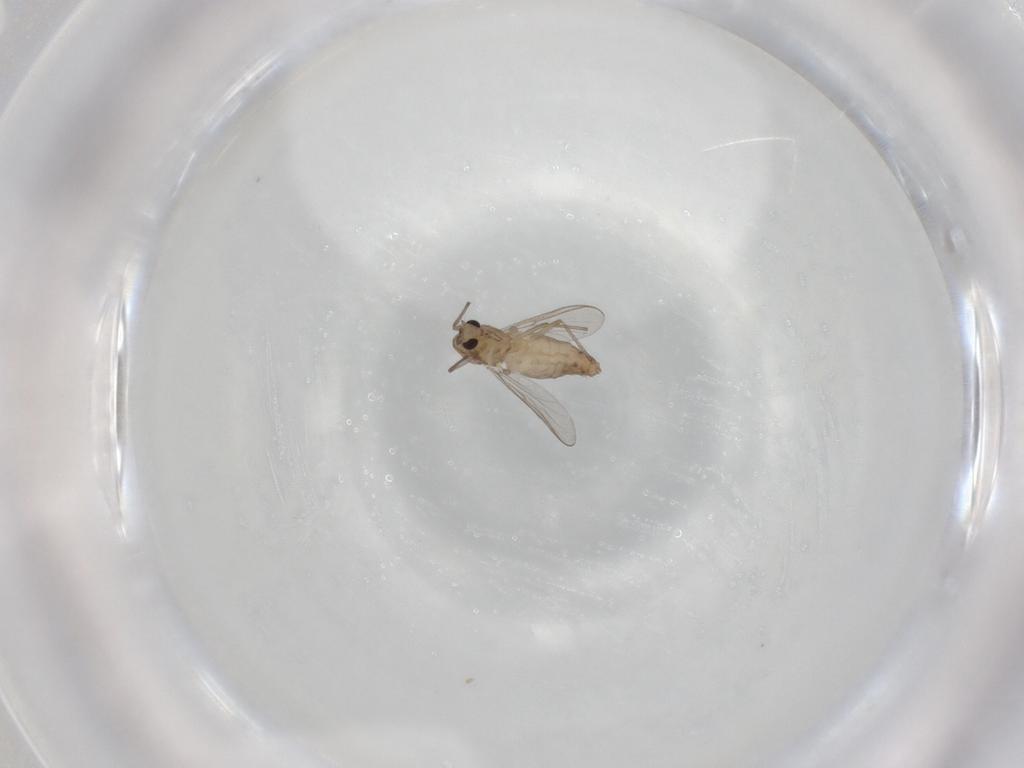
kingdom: Animalia
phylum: Arthropoda
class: Insecta
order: Diptera
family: Chironomidae
